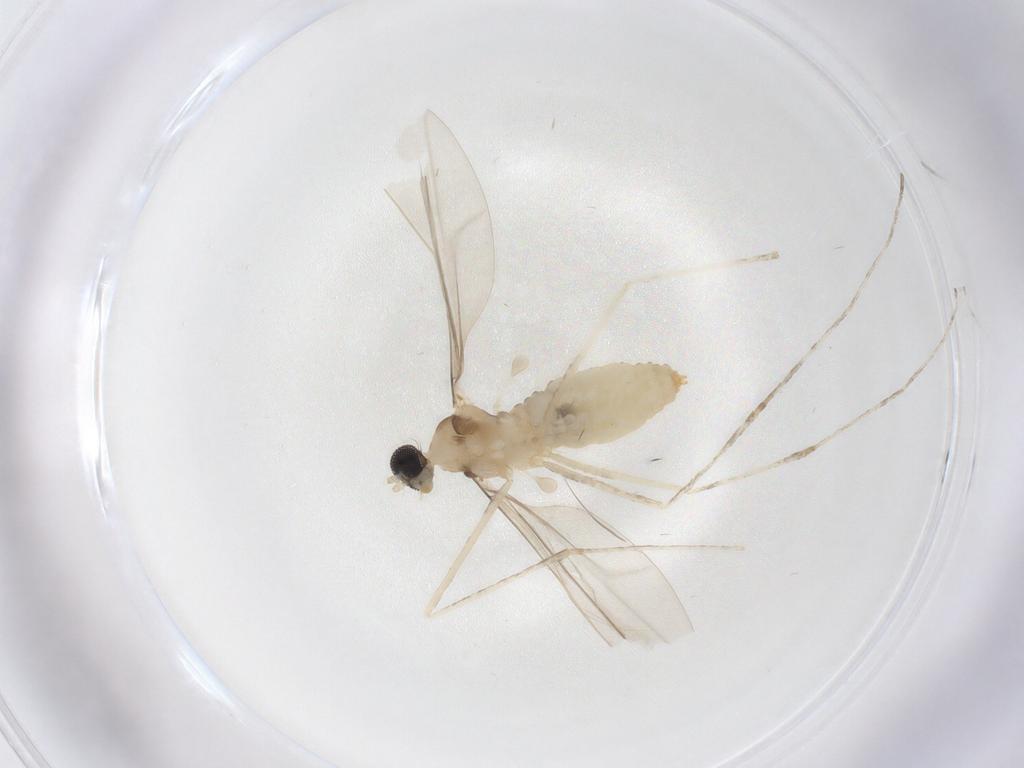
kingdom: Animalia
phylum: Arthropoda
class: Insecta
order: Diptera
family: Cecidomyiidae
